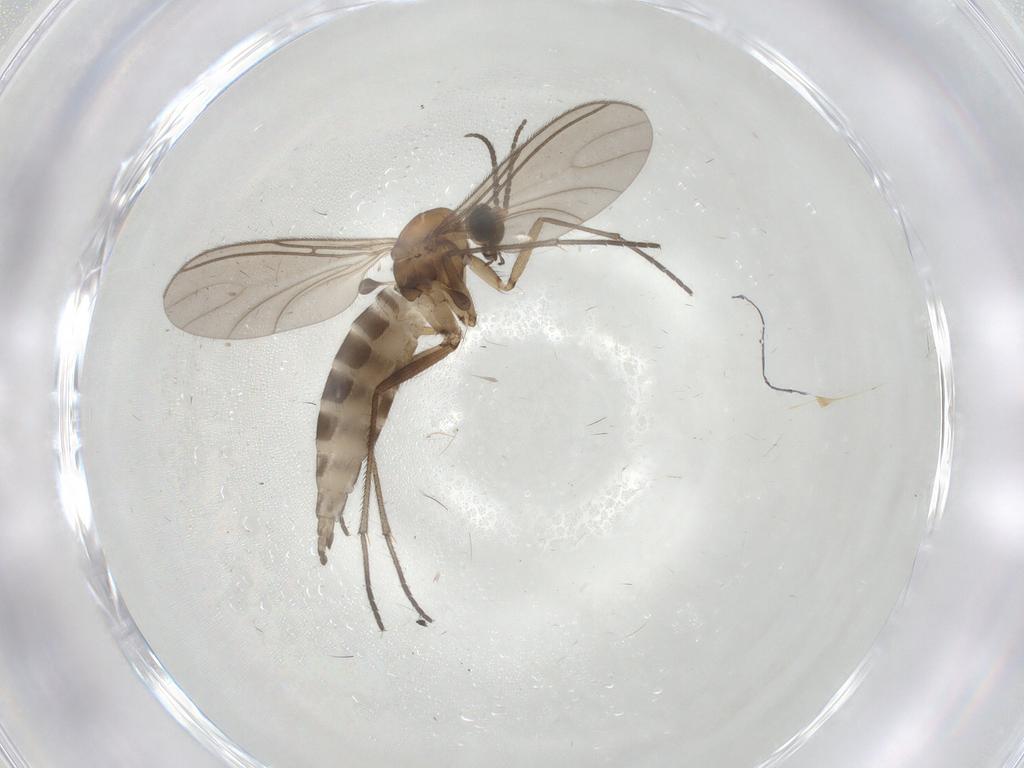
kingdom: Animalia
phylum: Arthropoda
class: Insecta
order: Diptera
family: Sciaridae
